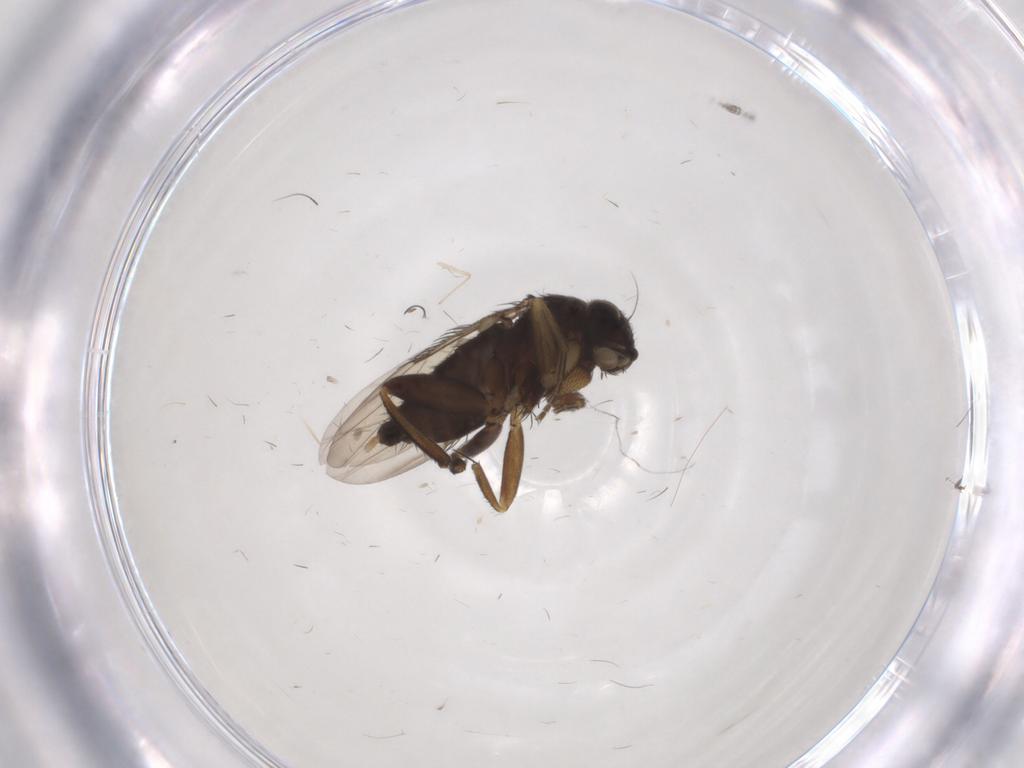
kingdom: Animalia
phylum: Arthropoda
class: Insecta
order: Diptera
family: Phoridae
